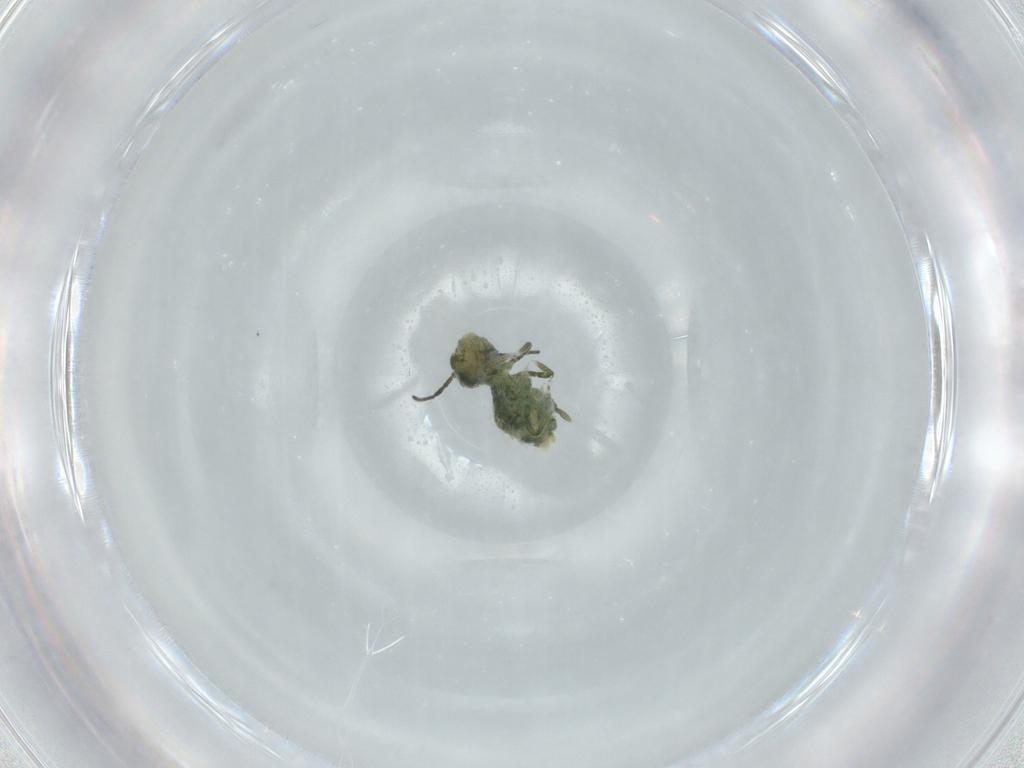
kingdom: Animalia
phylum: Arthropoda
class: Collembola
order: Symphypleona
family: Sminthuridae
